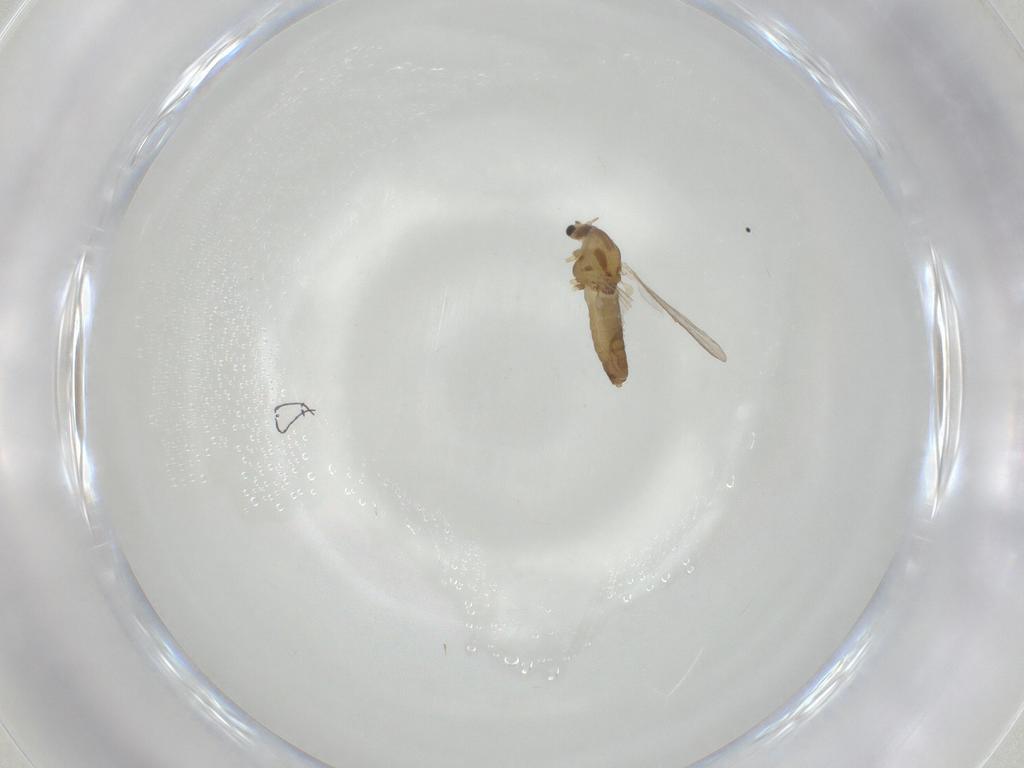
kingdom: Animalia
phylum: Arthropoda
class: Insecta
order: Diptera
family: Chironomidae
